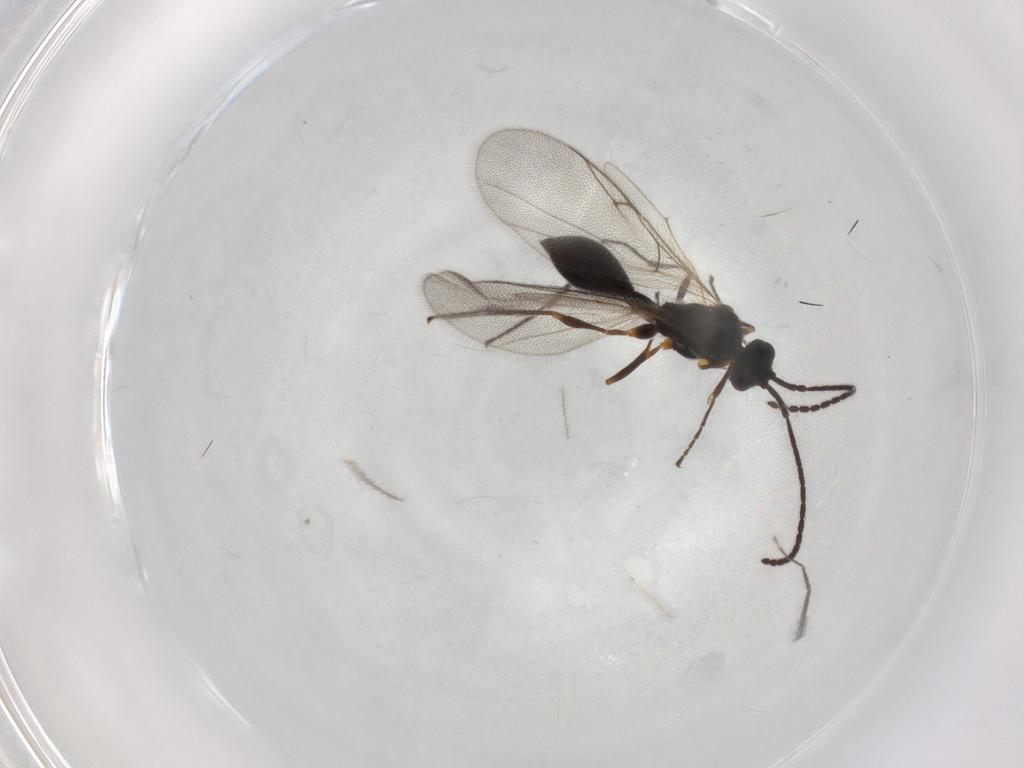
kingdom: Animalia
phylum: Arthropoda
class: Insecta
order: Hymenoptera
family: Diapriidae
